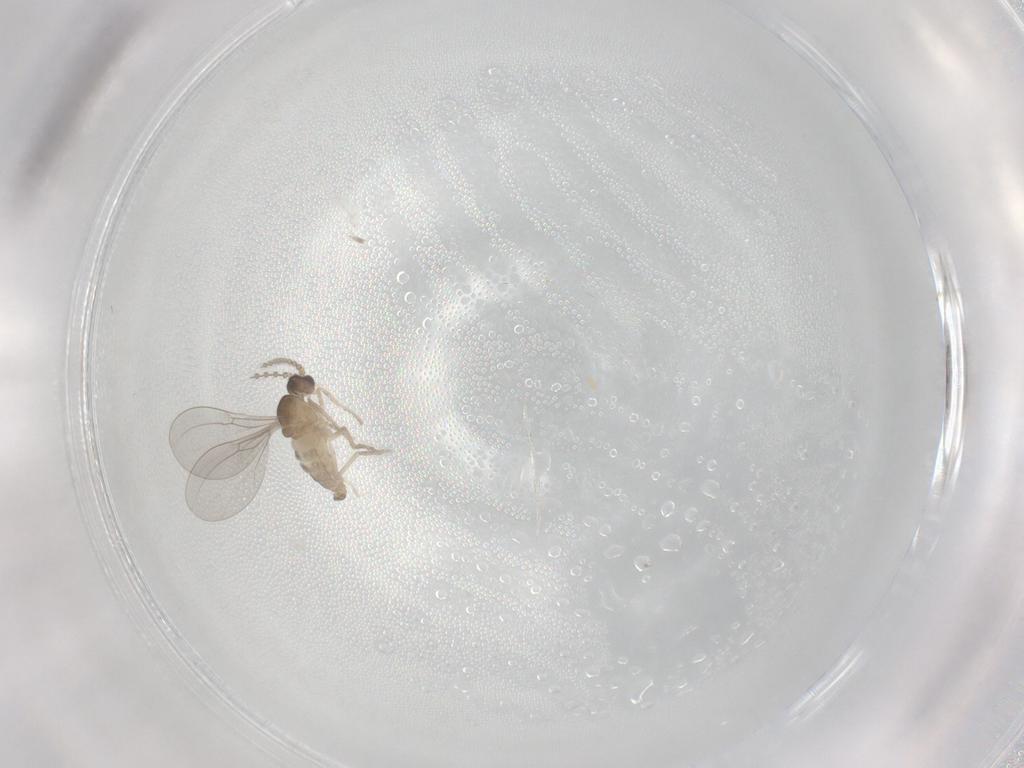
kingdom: Animalia
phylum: Arthropoda
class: Insecta
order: Diptera
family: Cecidomyiidae
